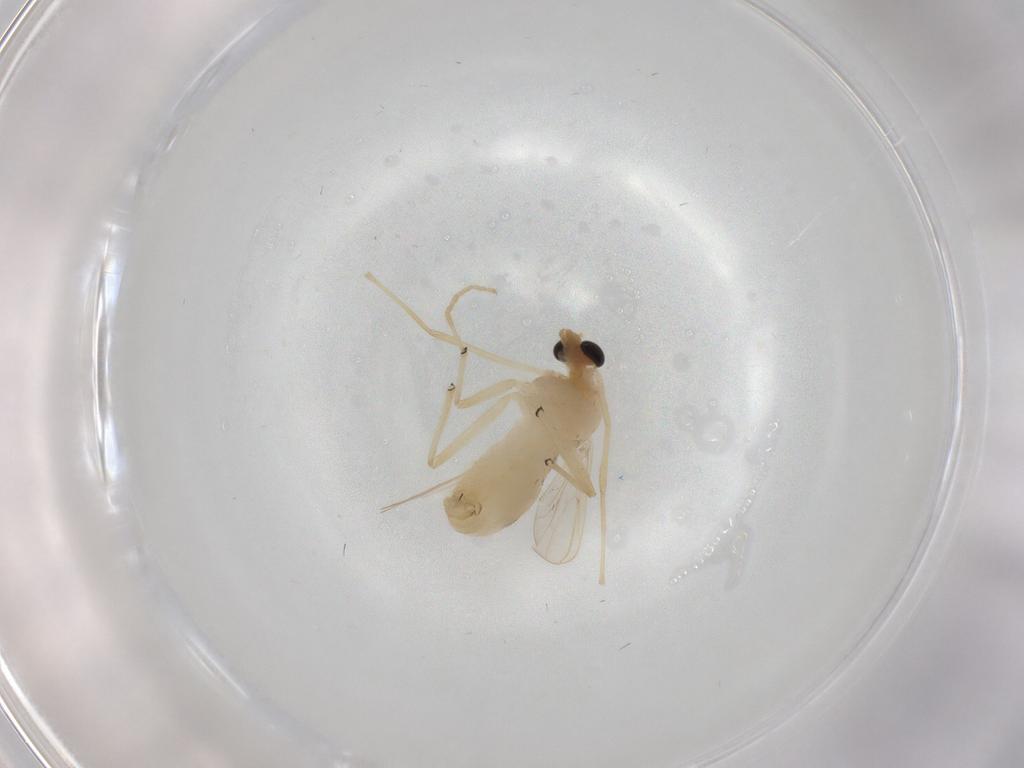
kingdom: Animalia
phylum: Arthropoda
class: Insecta
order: Diptera
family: Chironomidae
